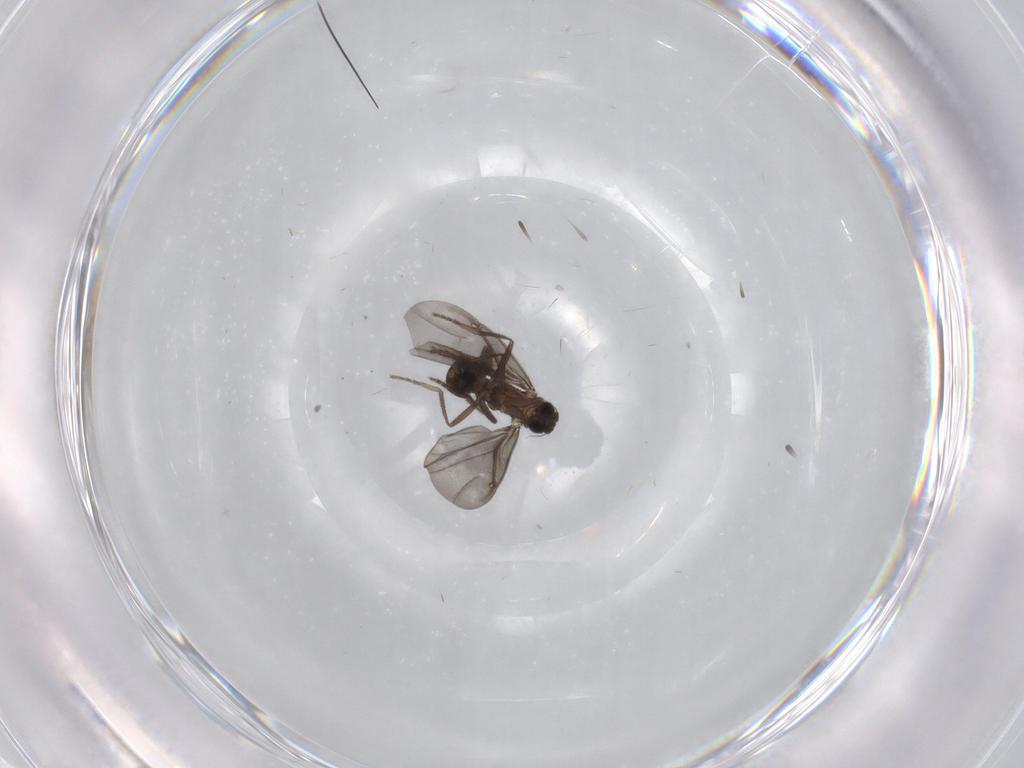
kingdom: Animalia
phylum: Arthropoda
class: Insecta
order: Diptera
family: Phoridae
